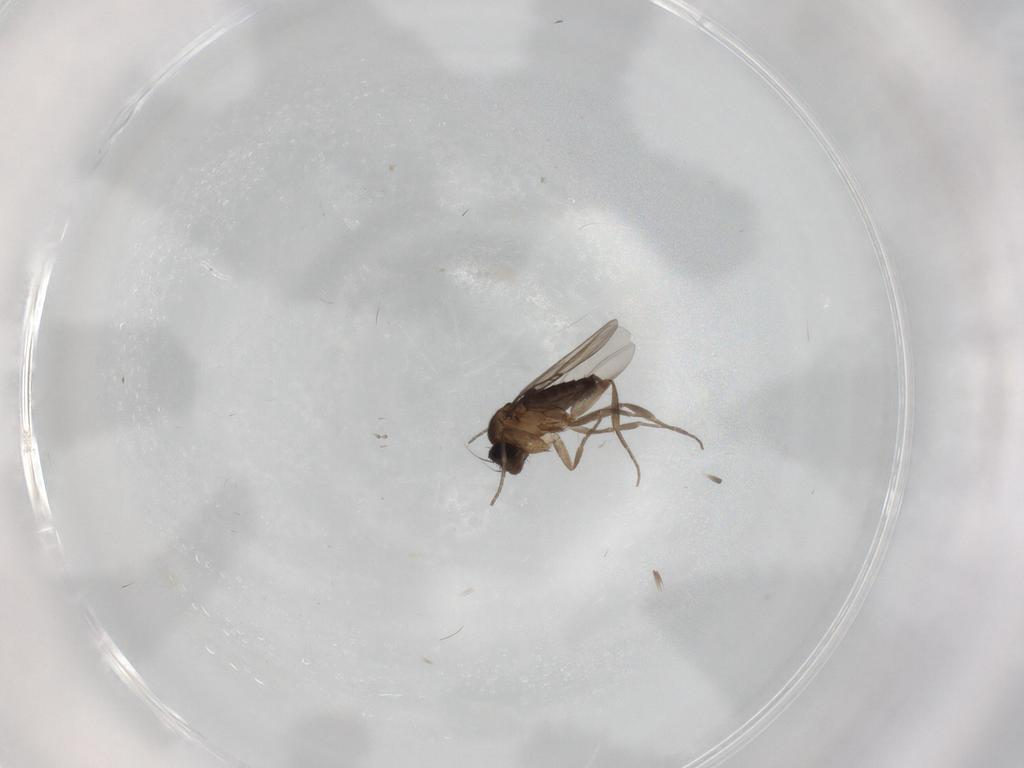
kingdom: Animalia
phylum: Arthropoda
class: Insecta
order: Diptera
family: Phoridae
